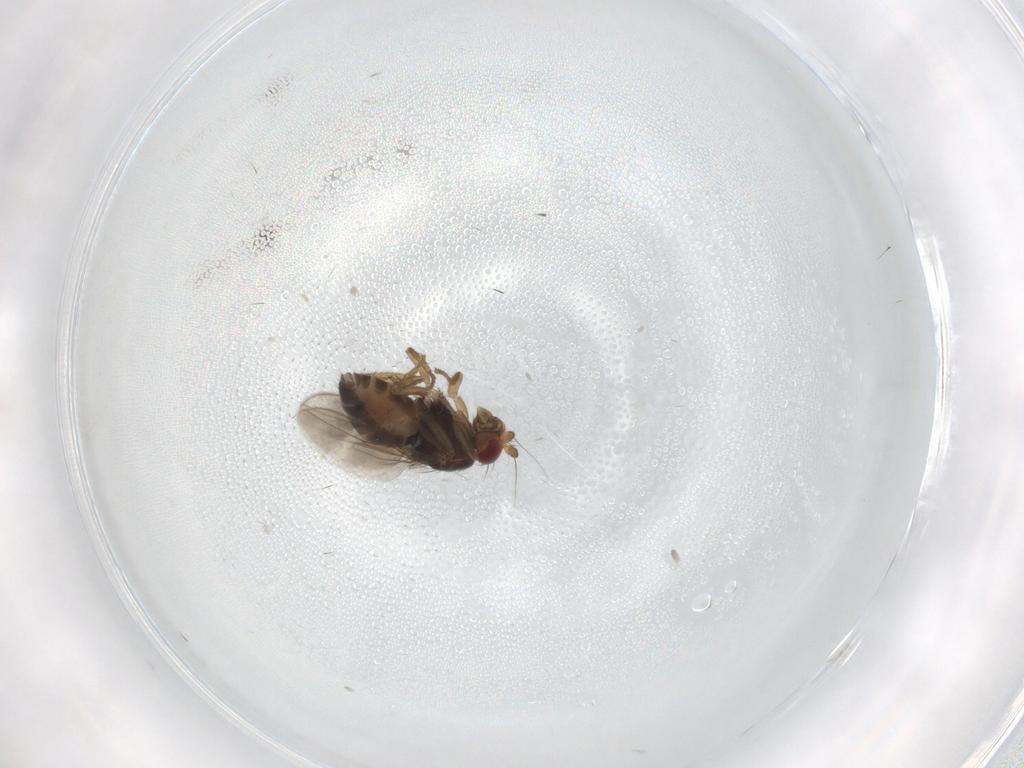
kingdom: Animalia
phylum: Arthropoda
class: Insecta
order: Diptera
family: Sphaeroceridae
